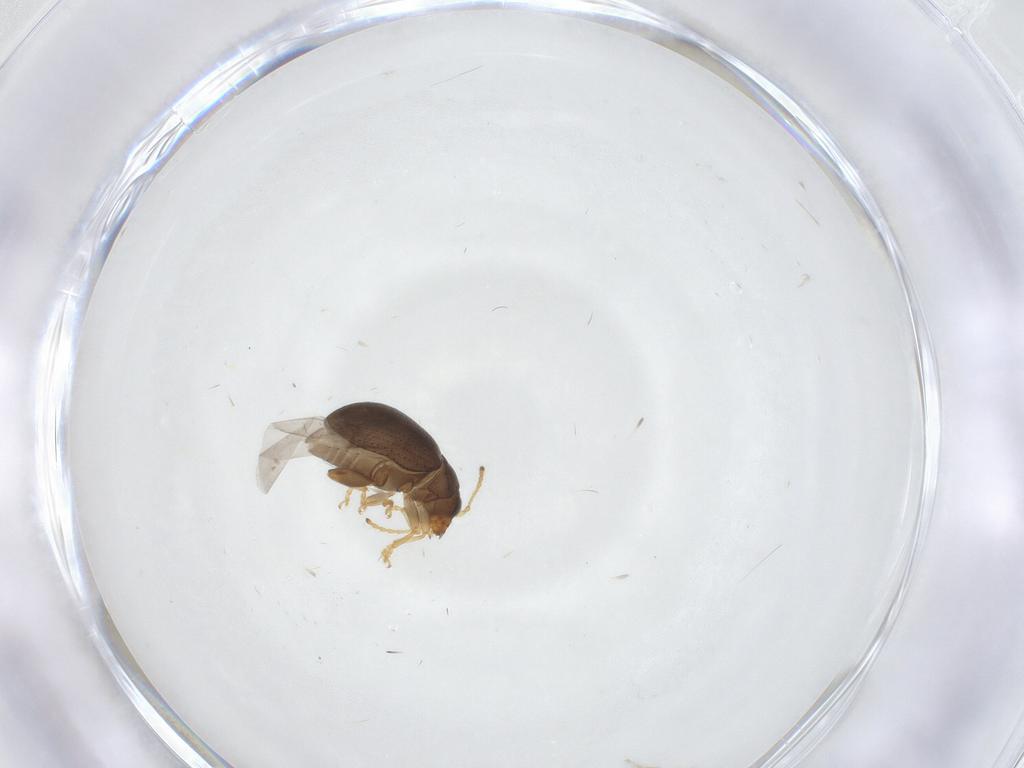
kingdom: Animalia
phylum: Arthropoda
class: Insecta
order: Coleoptera
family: Chrysomelidae
